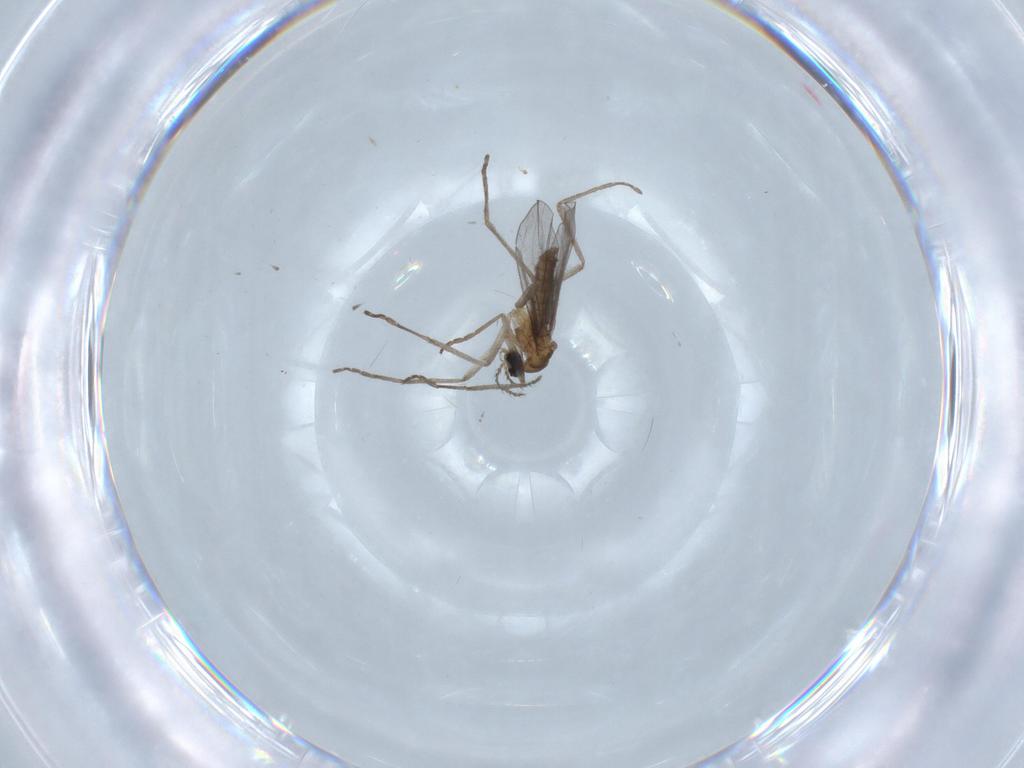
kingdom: Animalia
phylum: Arthropoda
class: Insecta
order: Diptera
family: Cecidomyiidae
